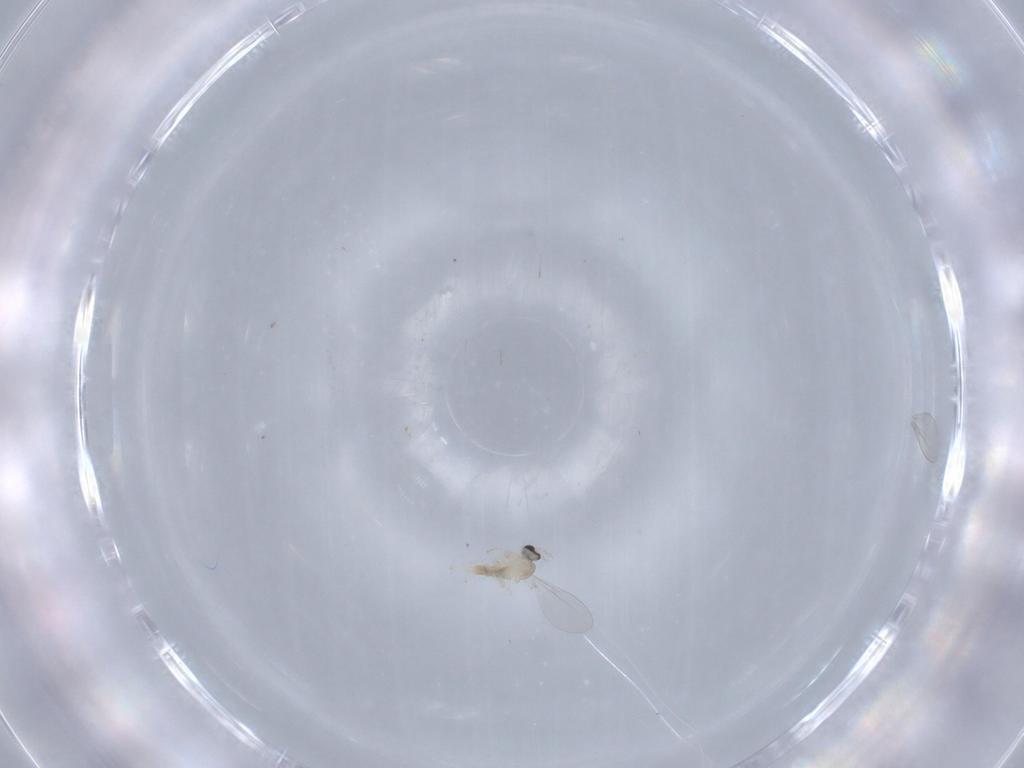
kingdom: Animalia
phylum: Arthropoda
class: Insecta
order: Diptera
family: Cecidomyiidae
